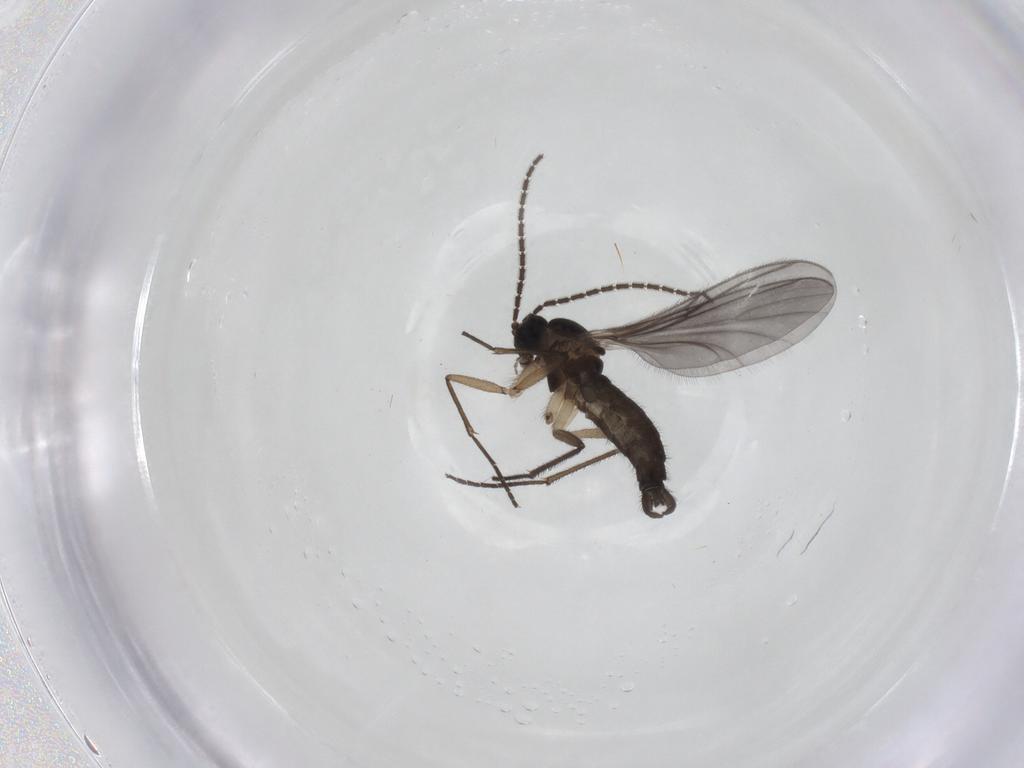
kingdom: Animalia
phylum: Arthropoda
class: Insecta
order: Diptera
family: Sciaridae
